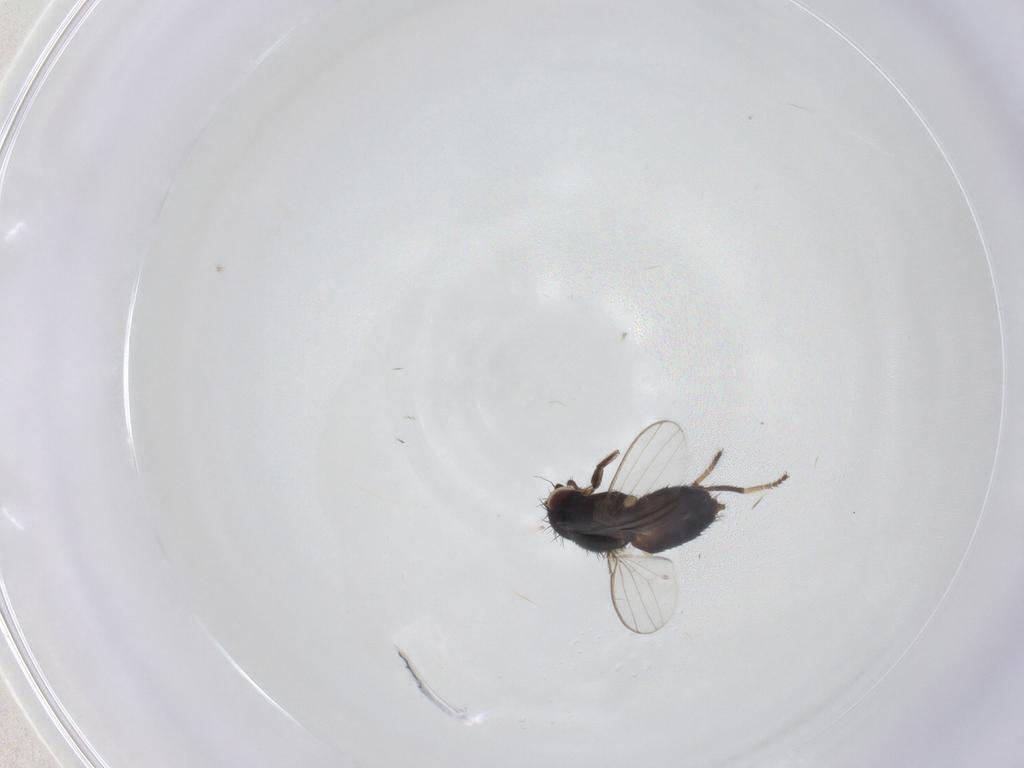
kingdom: Animalia
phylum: Arthropoda
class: Insecta
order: Diptera
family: Milichiidae
